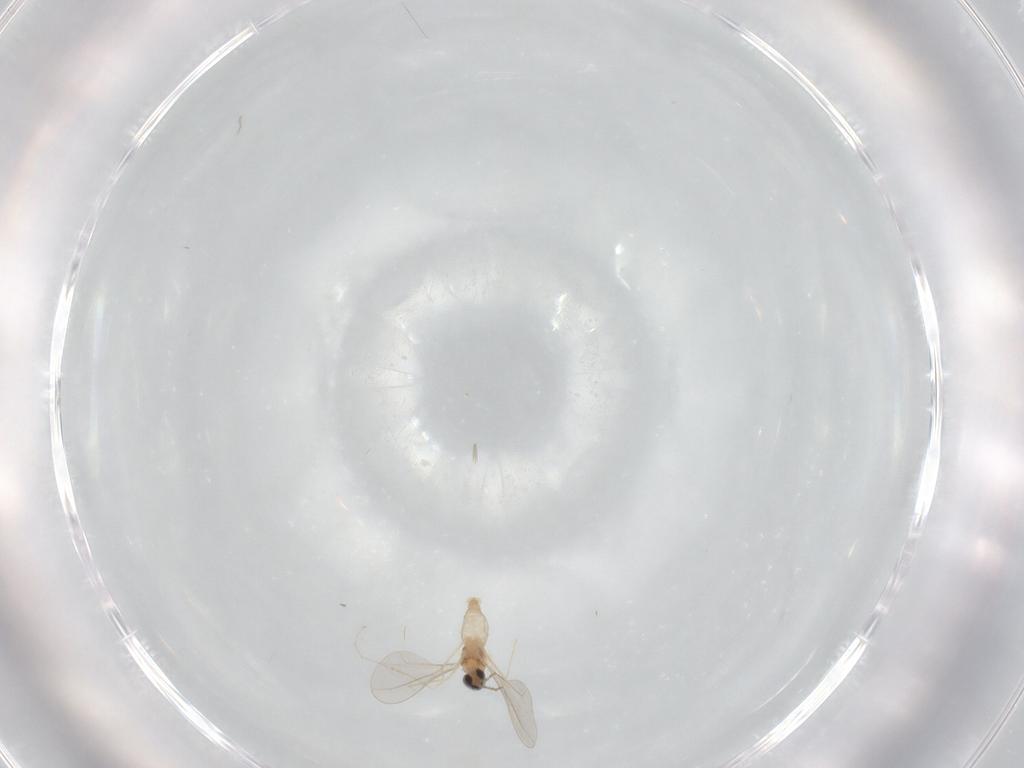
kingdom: Animalia
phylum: Arthropoda
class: Insecta
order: Diptera
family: Cecidomyiidae
